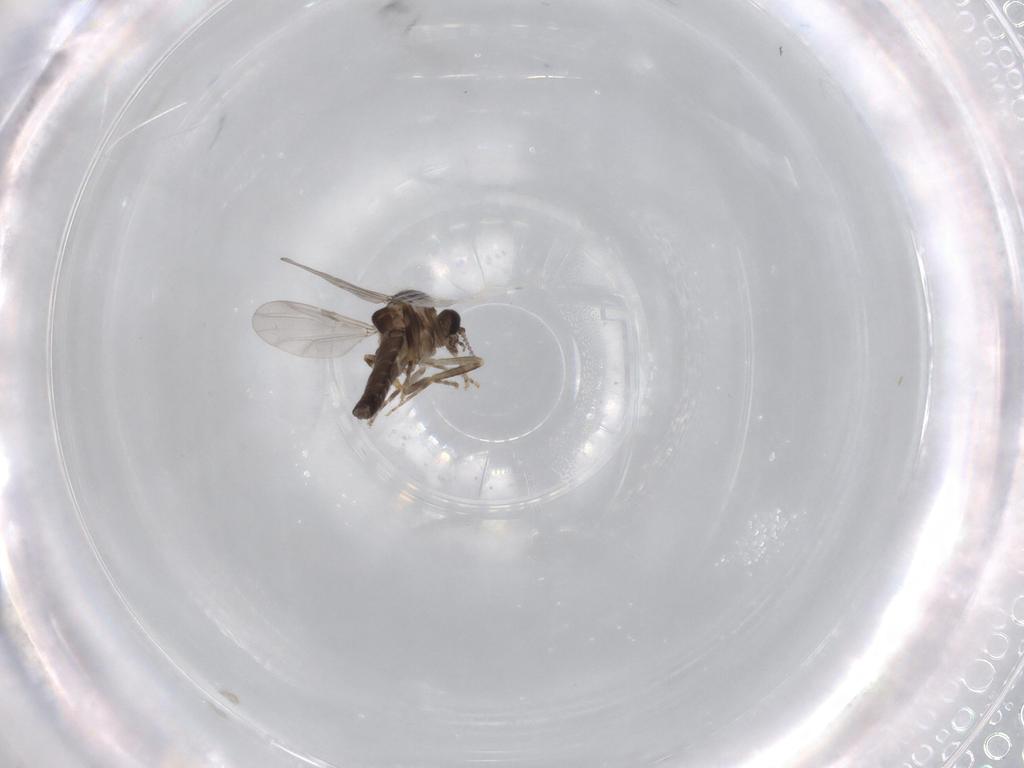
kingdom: Animalia
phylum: Arthropoda
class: Insecta
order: Diptera
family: Ceratopogonidae
